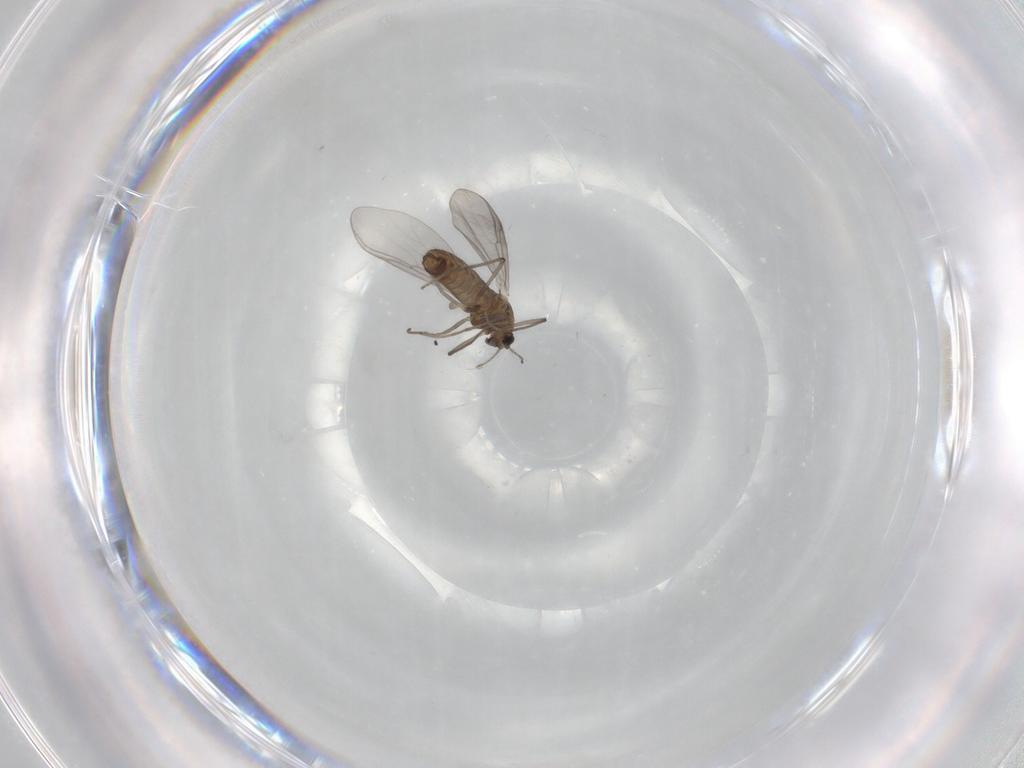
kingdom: Animalia
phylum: Arthropoda
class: Insecta
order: Diptera
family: Chironomidae
